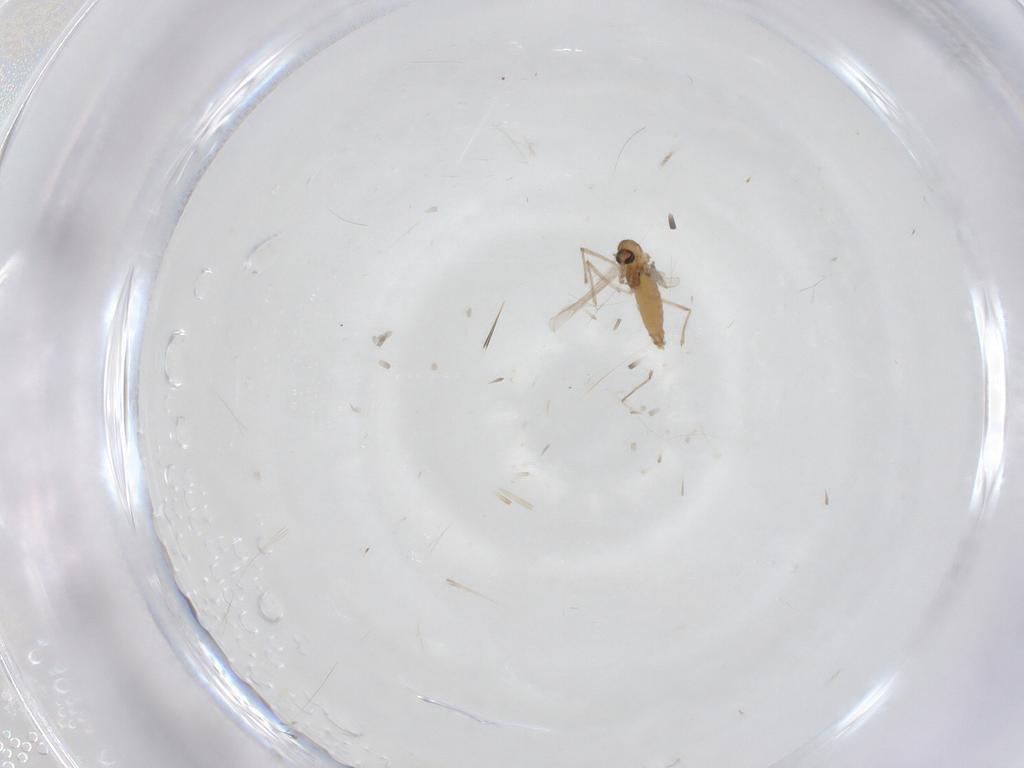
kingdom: Animalia
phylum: Arthropoda
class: Insecta
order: Diptera
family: Chironomidae
